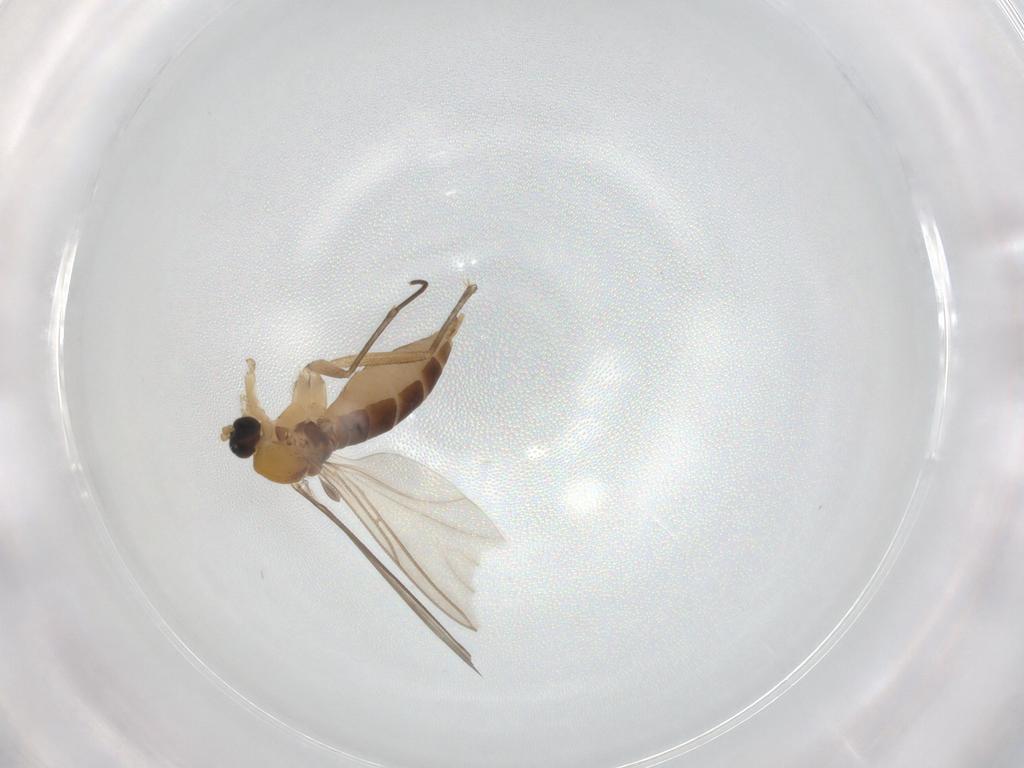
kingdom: Animalia
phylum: Arthropoda
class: Insecta
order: Diptera
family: Sciaridae
